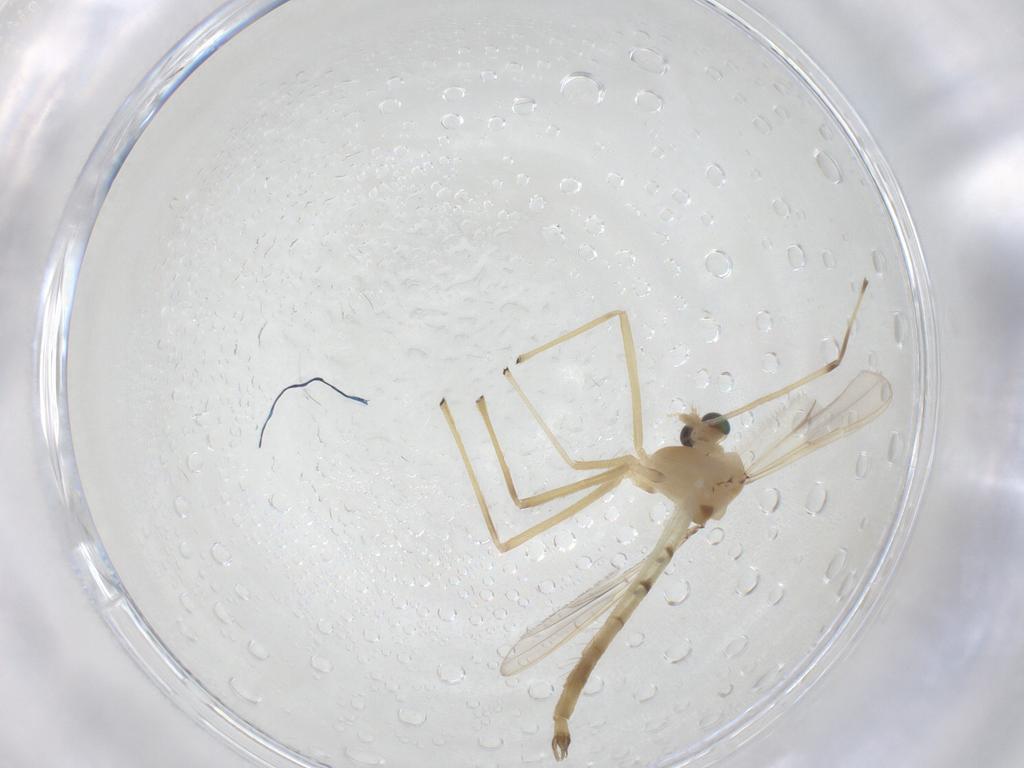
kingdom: Animalia
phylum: Arthropoda
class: Insecta
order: Diptera
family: Chironomidae
